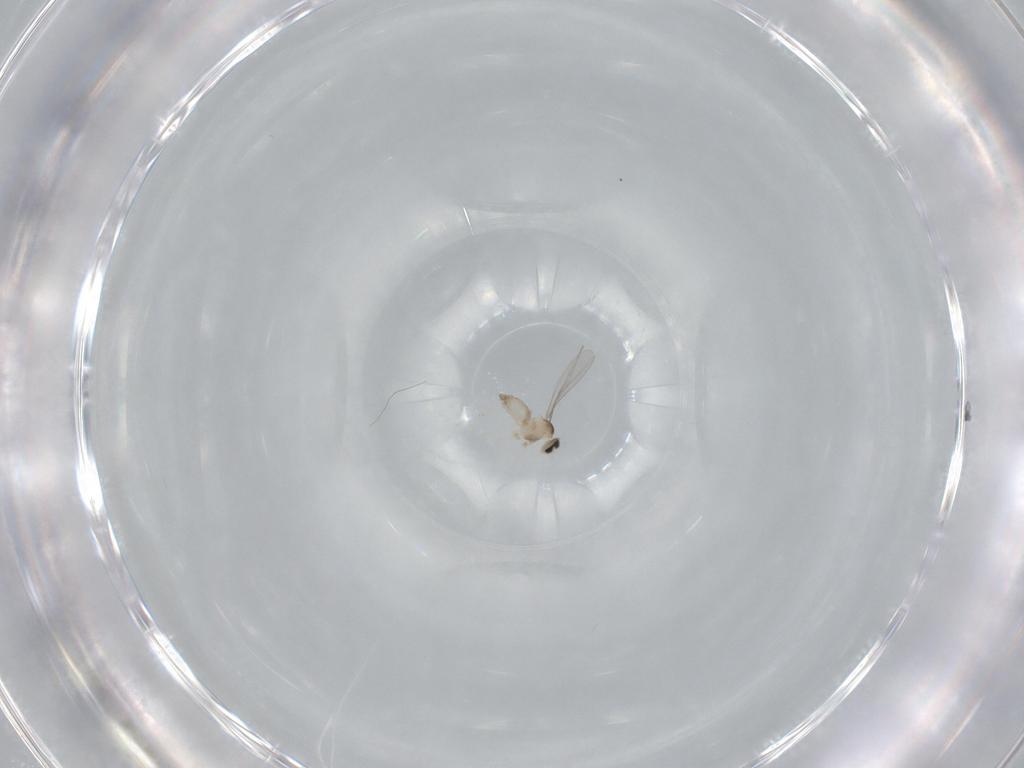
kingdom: Animalia
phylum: Arthropoda
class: Insecta
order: Diptera
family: Cecidomyiidae
